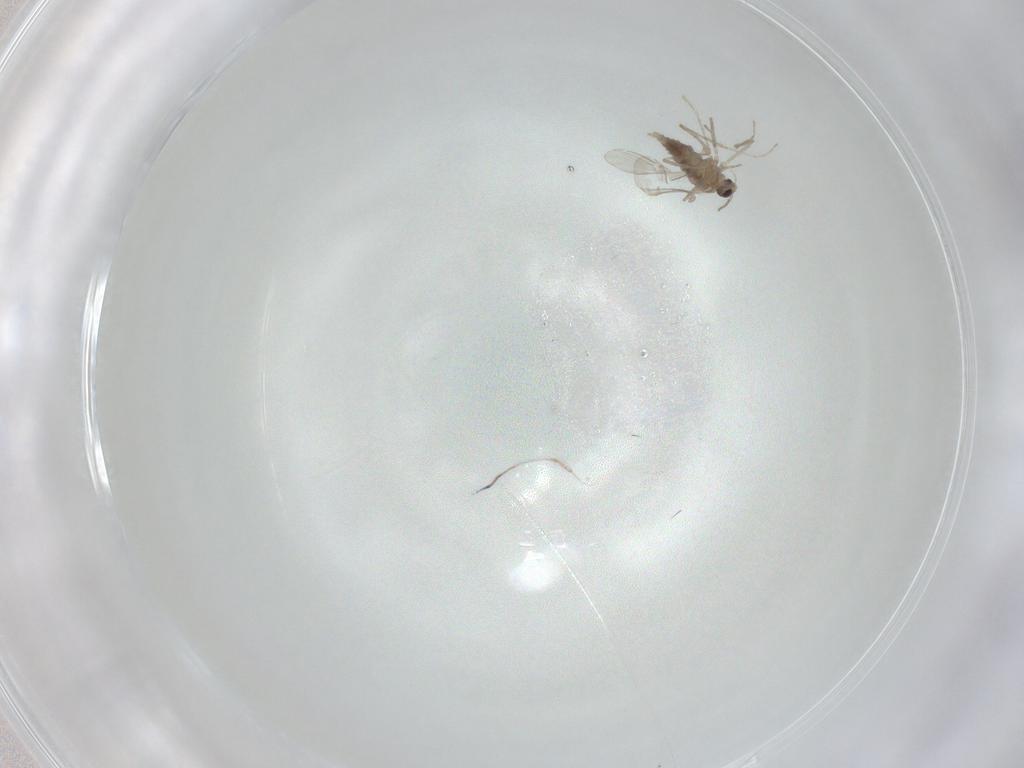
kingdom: Animalia
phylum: Arthropoda
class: Insecta
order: Diptera
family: Cecidomyiidae
